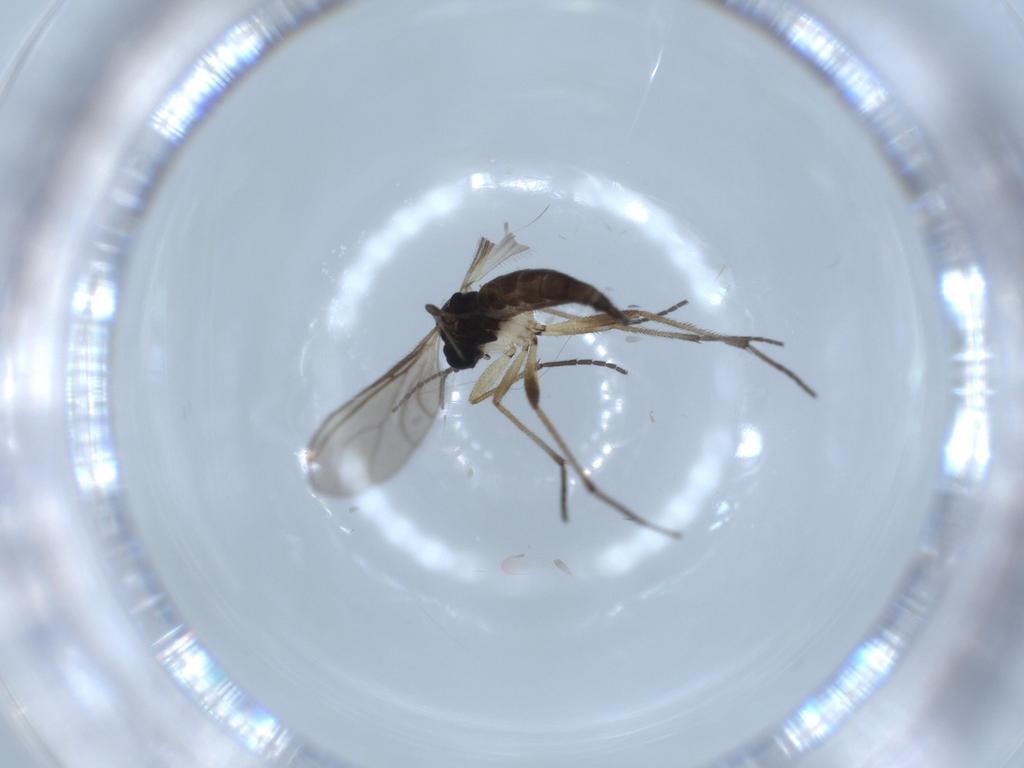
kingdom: Animalia
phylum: Arthropoda
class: Insecta
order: Diptera
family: Sciaridae
